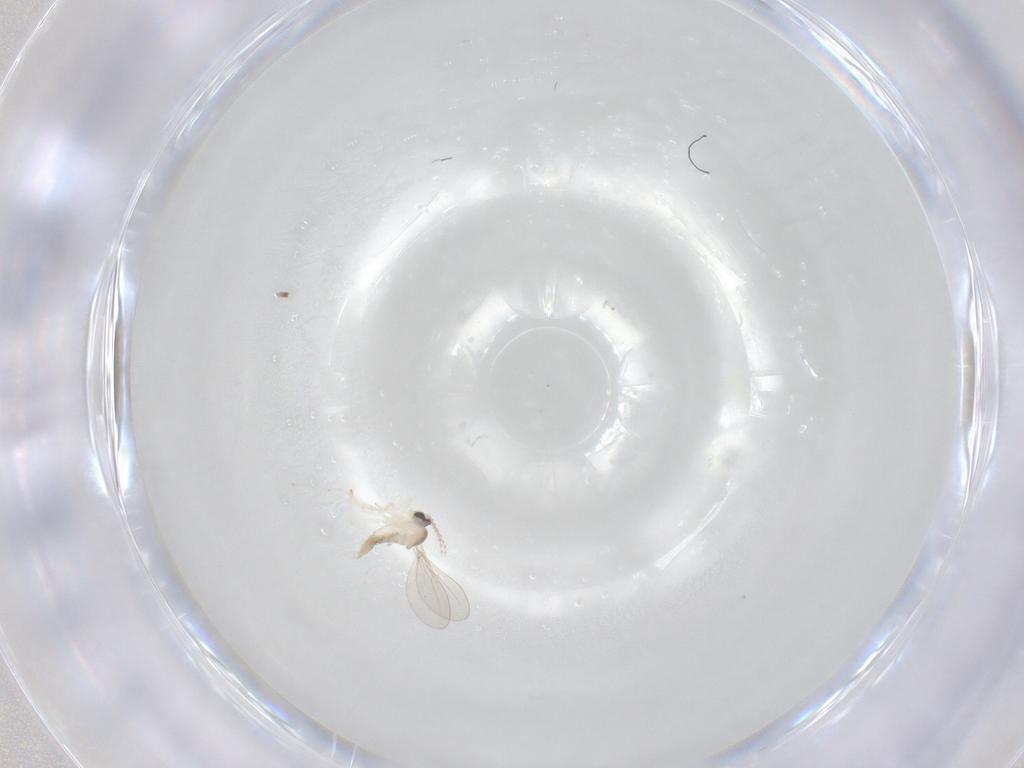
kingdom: Animalia
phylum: Arthropoda
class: Insecta
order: Diptera
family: Cecidomyiidae
